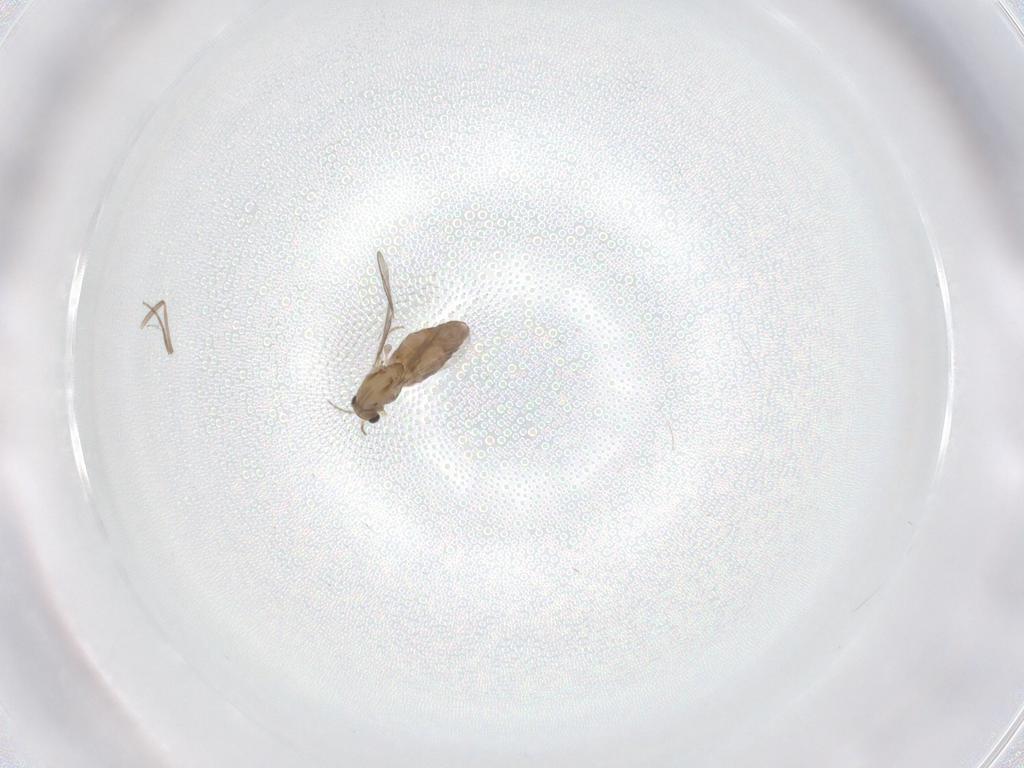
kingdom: Animalia
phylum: Arthropoda
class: Insecta
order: Diptera
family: Chironomidae
